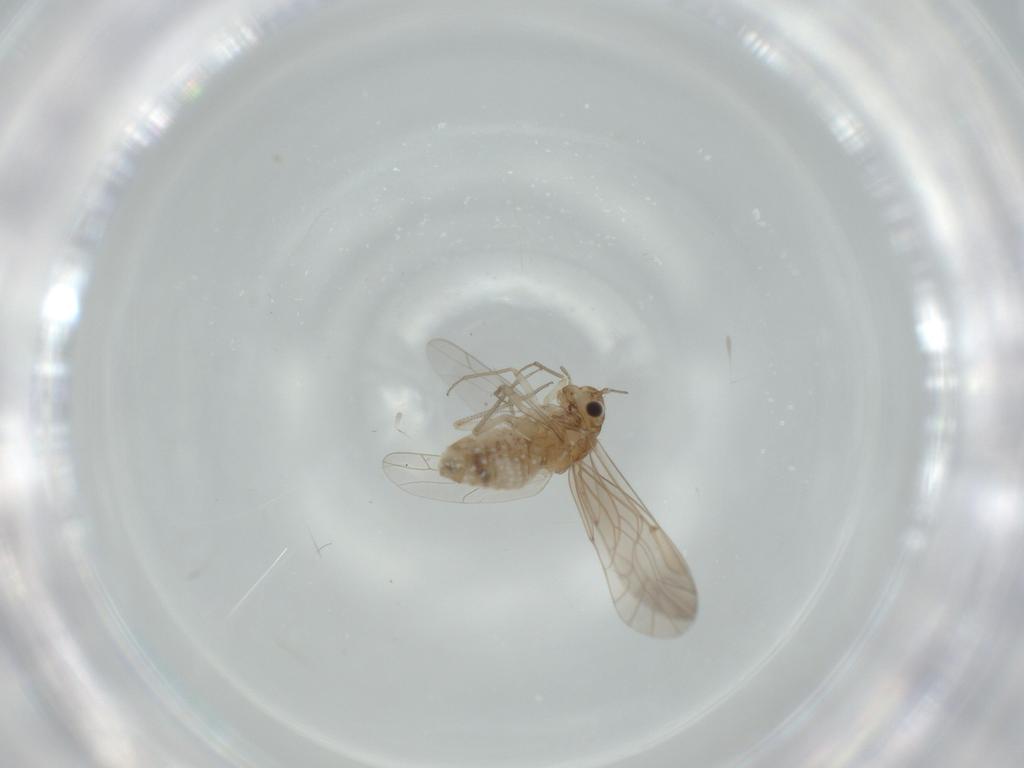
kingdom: Animalia
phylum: Arthropoda
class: Insecta
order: Psocodea
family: Lachesillidae
